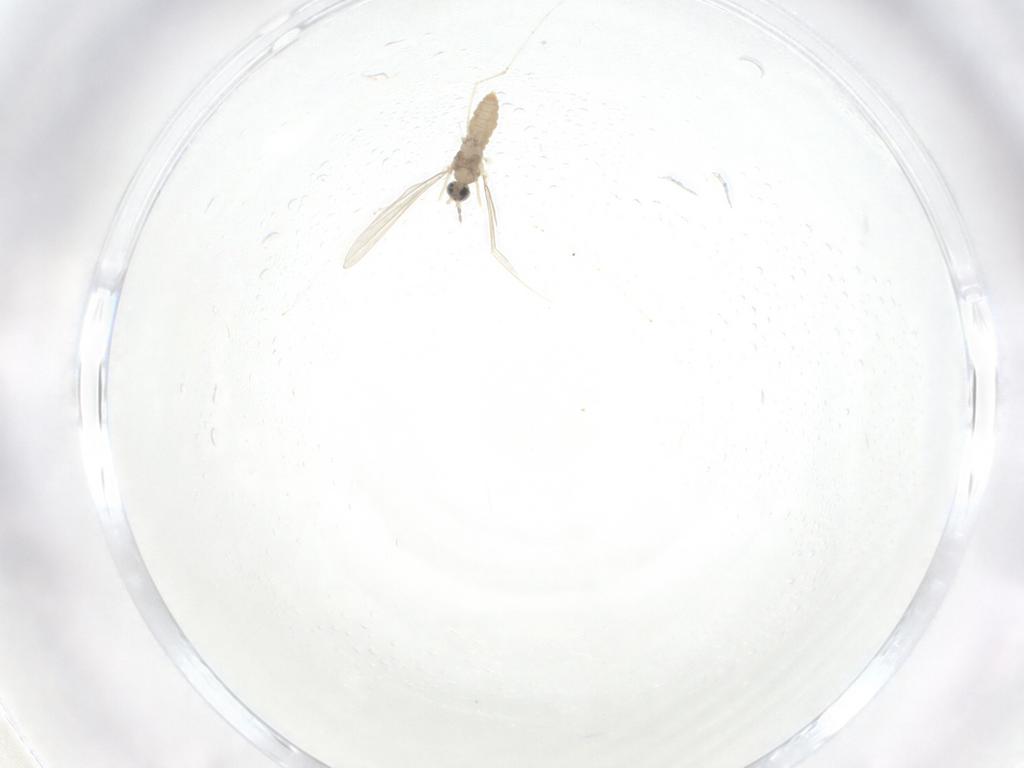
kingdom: Animalia
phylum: Arthropoda
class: Insecta
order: Diptera
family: Cecidomyiidae
